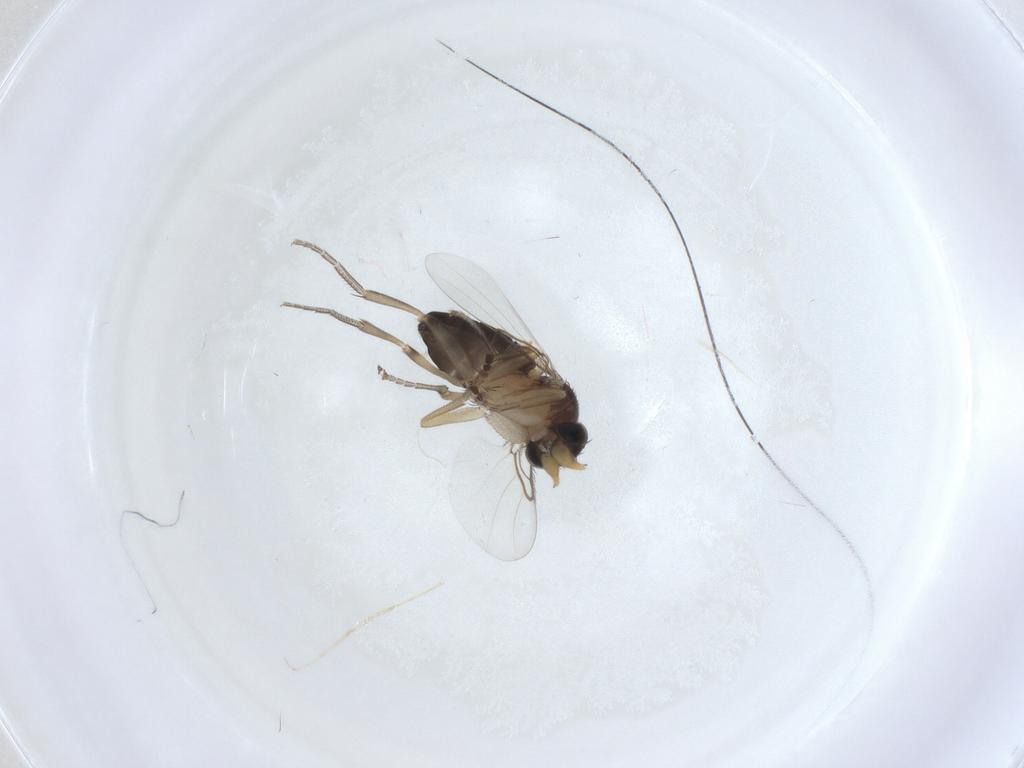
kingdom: Animalia
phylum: Arthropoda
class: Insecta
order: Diptera
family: Phoridae
